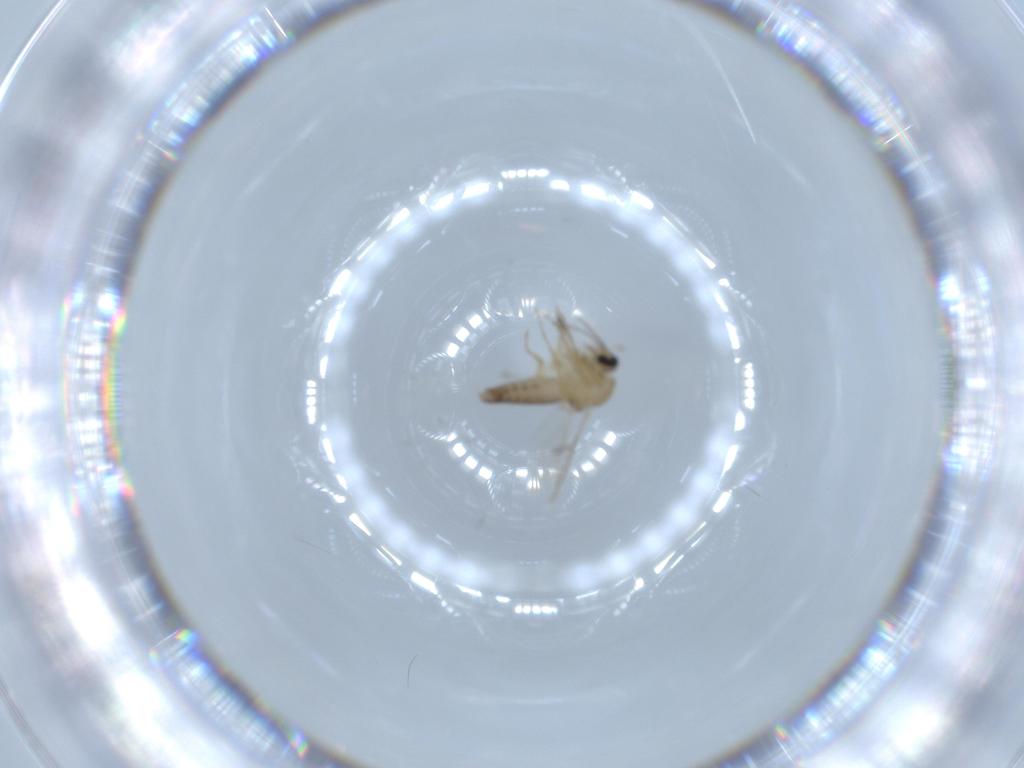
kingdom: Animalia
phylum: Arthropoda
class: Insecta
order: Diptera
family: Ceratopogonidae
